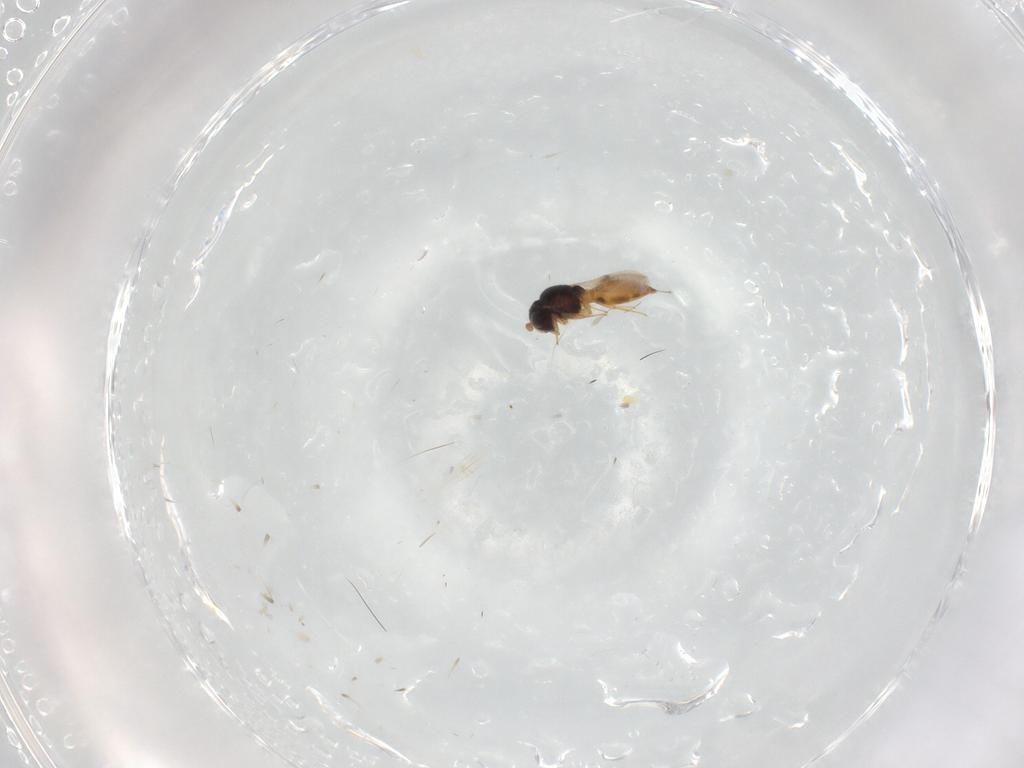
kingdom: Animalia
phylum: Arthropoda
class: Insecta
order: Hymenoptera
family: Scelionidae
